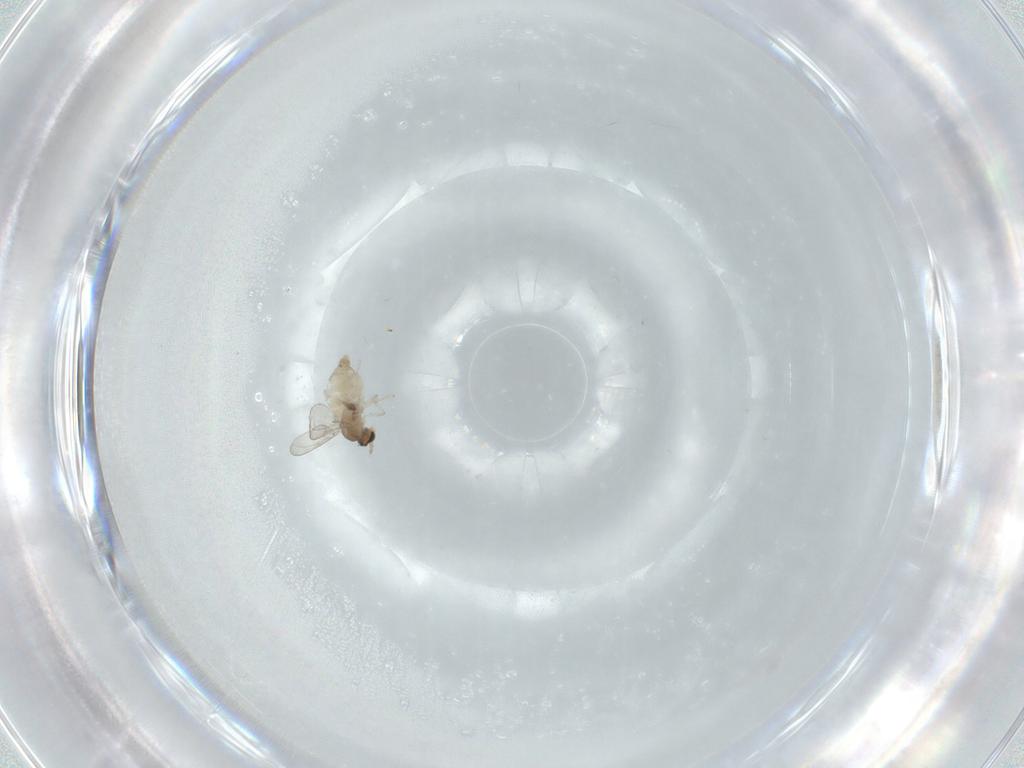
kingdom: Animalia
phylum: Arthropoda
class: Insecta
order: Diptera
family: Cecidomyiidae
